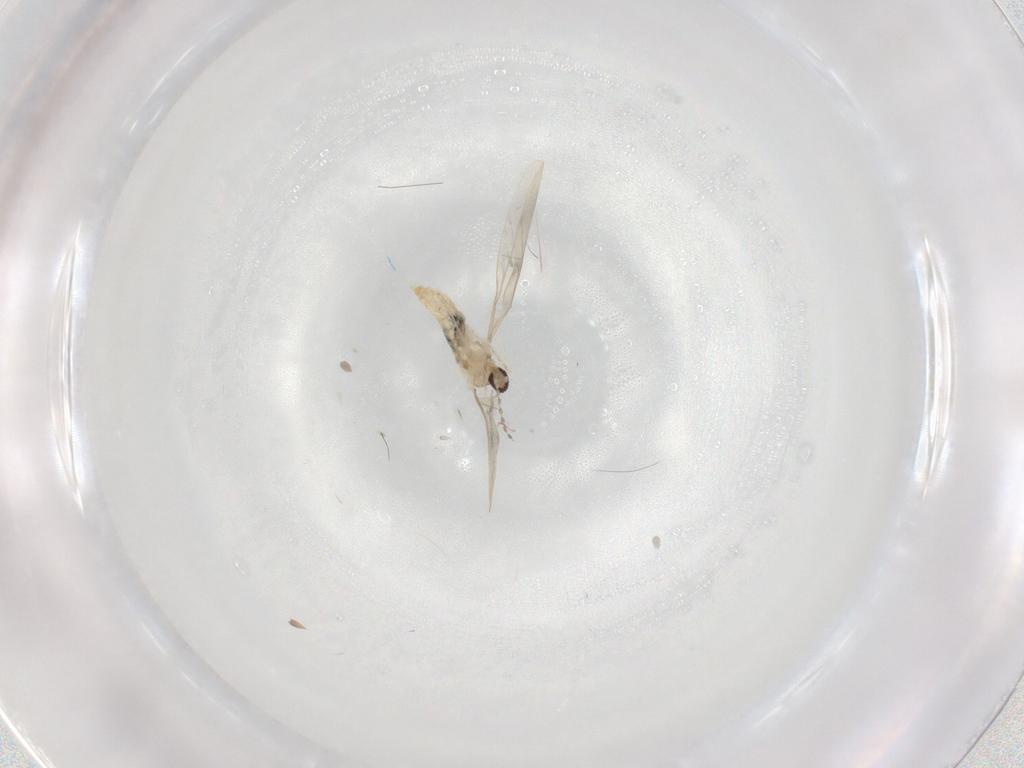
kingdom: Animalia
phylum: Arthropoda
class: Insecta
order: Diptera
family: Cecidomyiidae
